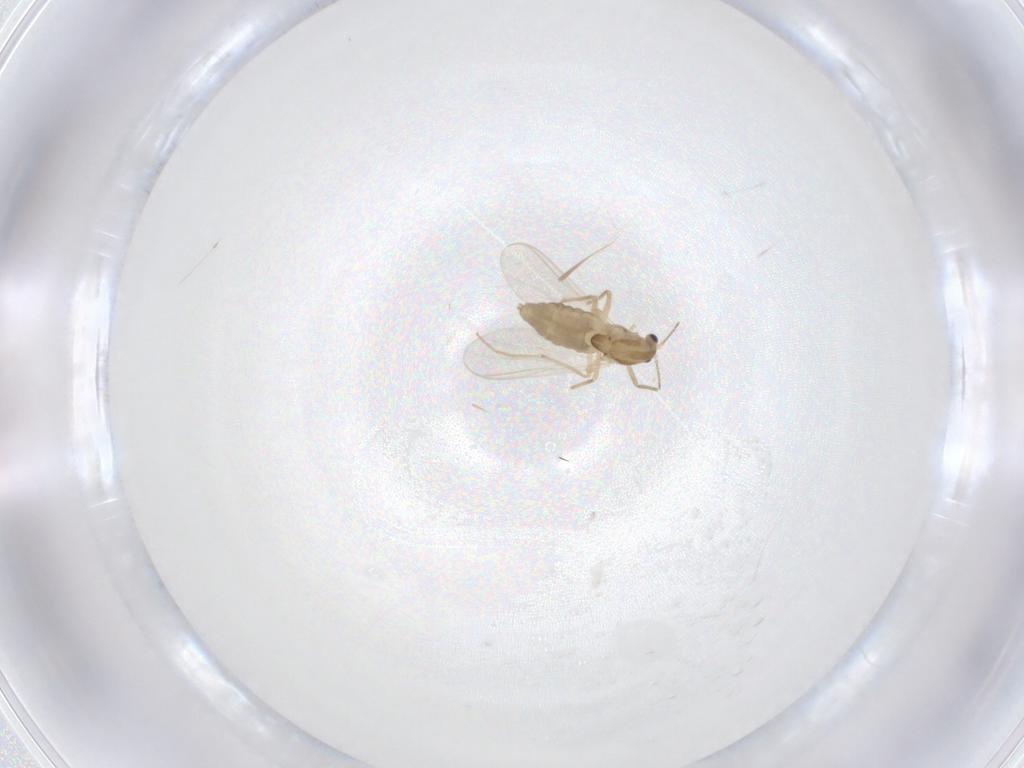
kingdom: Animalia
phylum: Arthropoda
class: Insecta
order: Diptera
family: Chironomidae
